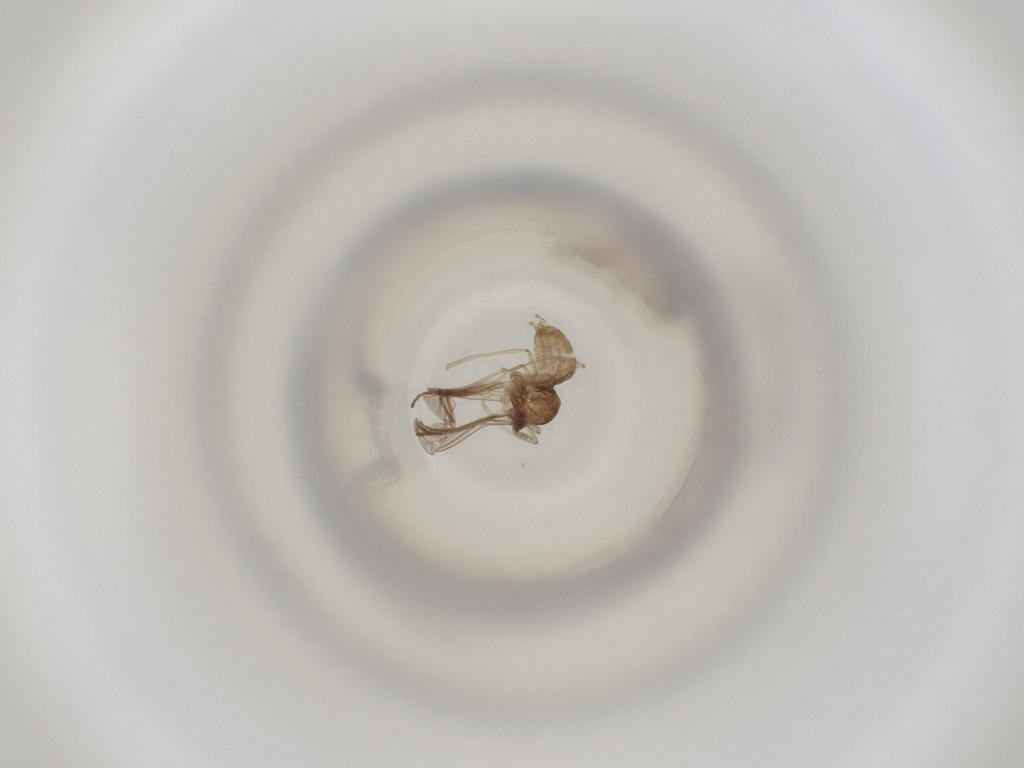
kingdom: Animalia
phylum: Arthropoda
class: Insecta
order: Diptera
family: Cecidomyiidae
